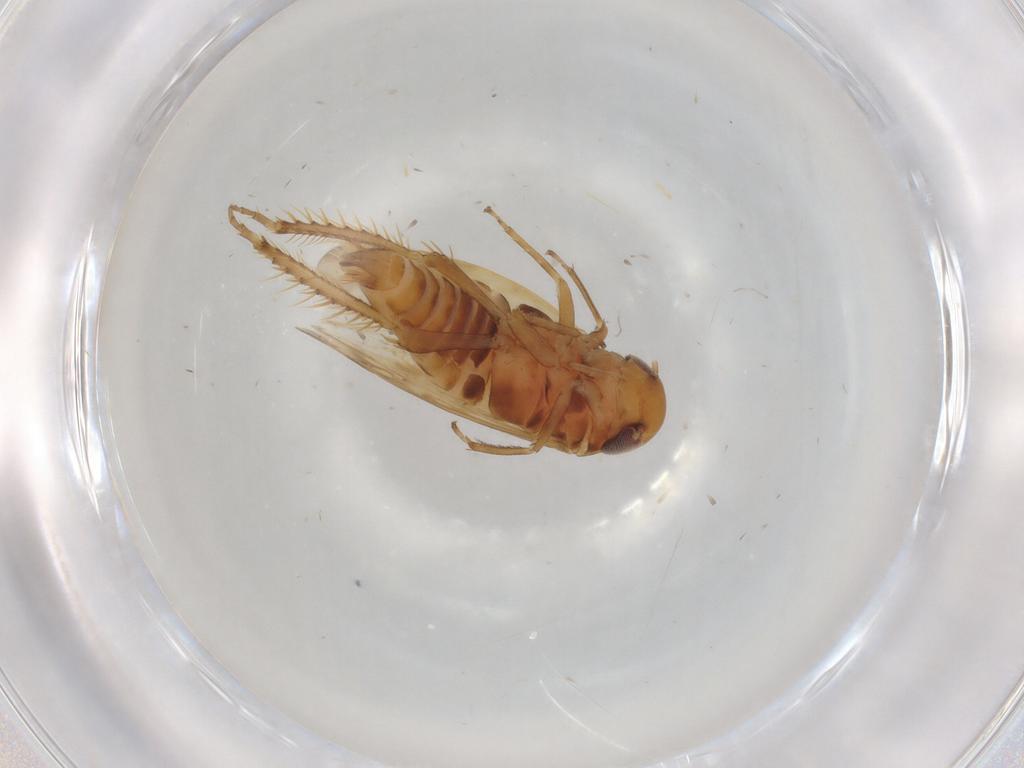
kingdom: Animalia
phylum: Arthropoda
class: Insecta
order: Hemiptera
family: Cicadellidae
